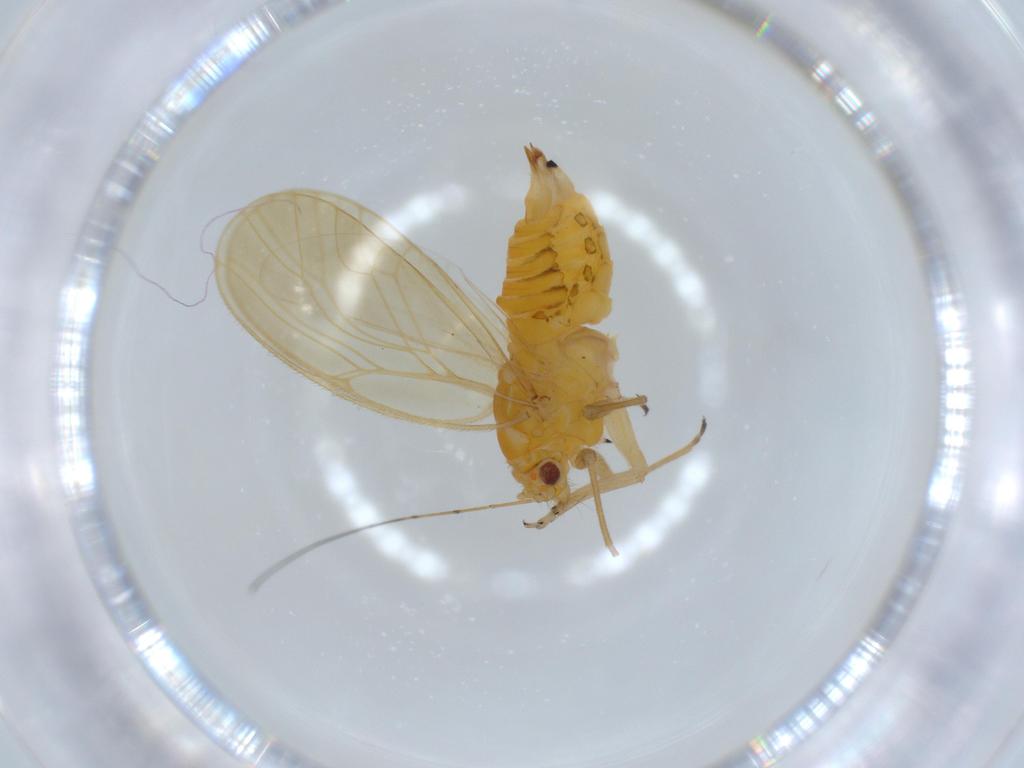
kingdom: Animalia
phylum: Arthropoda
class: Insecta
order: Hemiptera
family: Psyllidae
